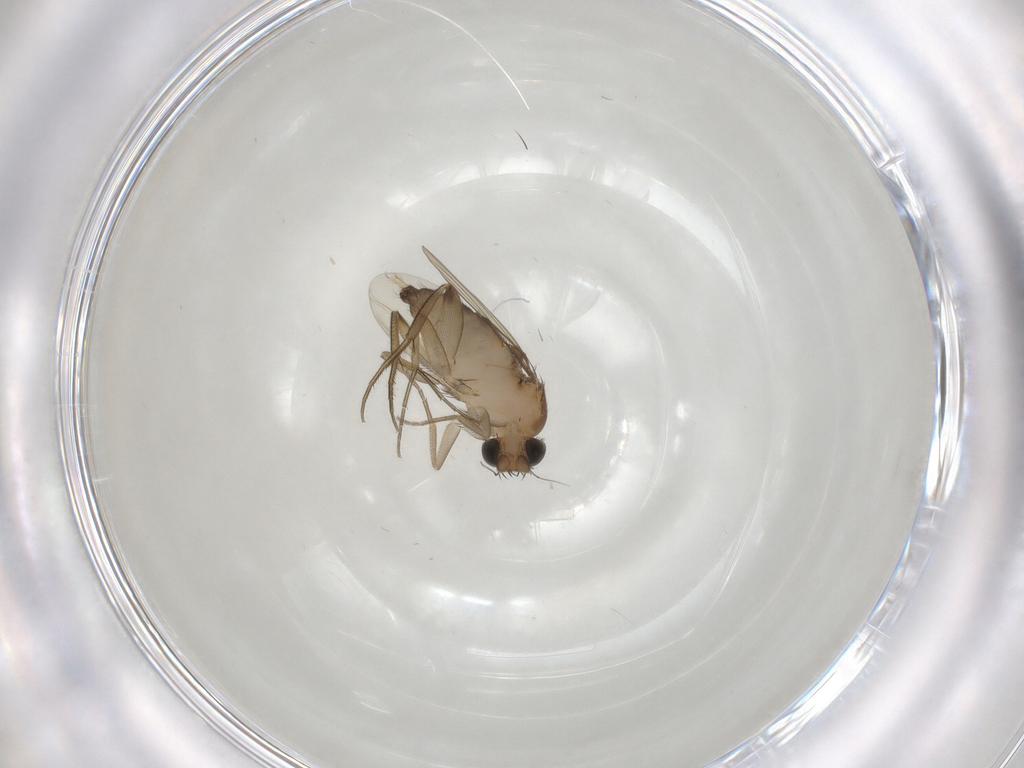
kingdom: Animalia
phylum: Arthropoda
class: Insecta
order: Diptera
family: Phoridae
